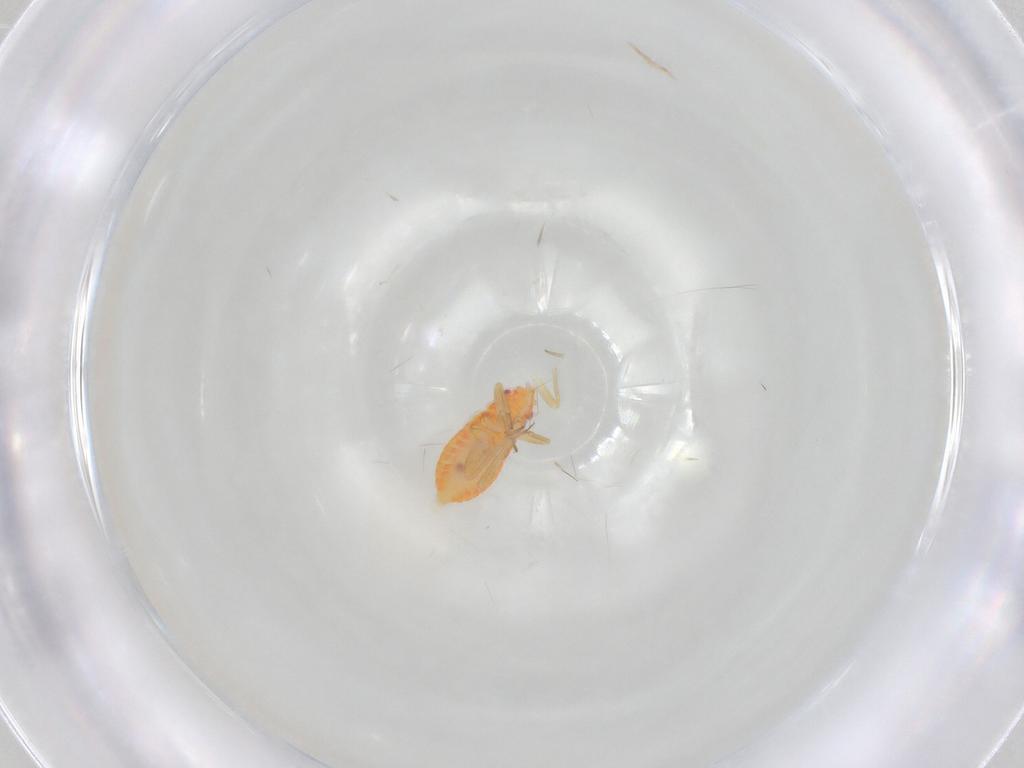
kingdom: Animalia
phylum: Arthropoda
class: Insecta
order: Hemiptera
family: Miridae
